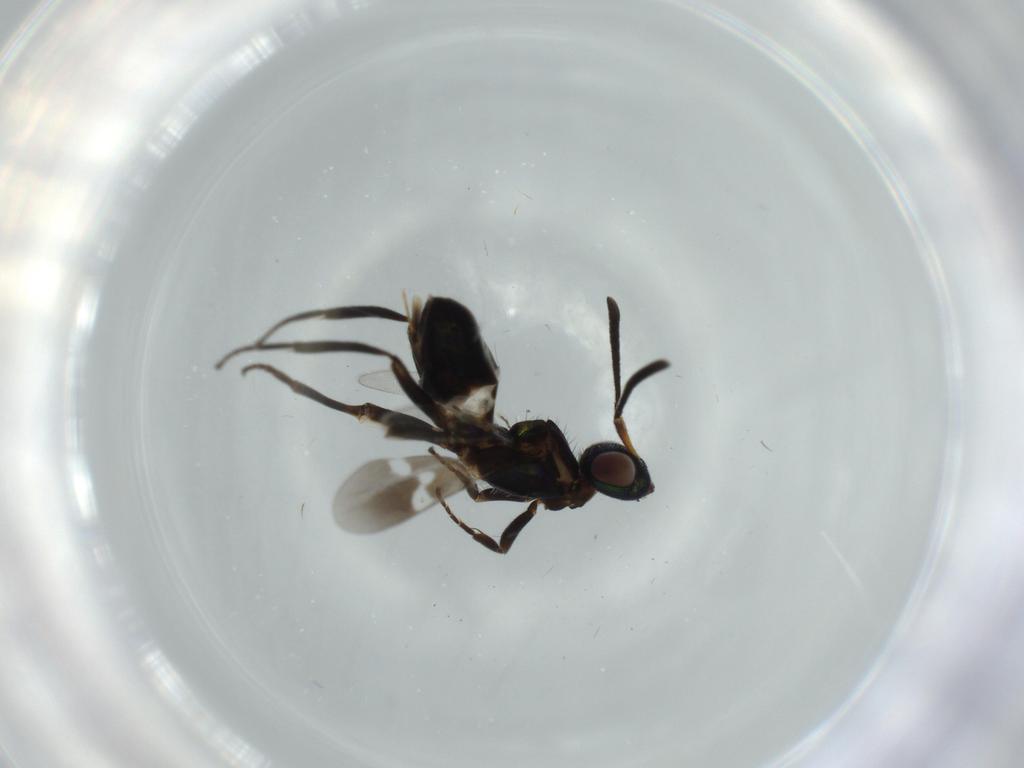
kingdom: Animalia
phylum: Arthropoda
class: Insecta
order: Hymenoptera
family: Eupelmidae
